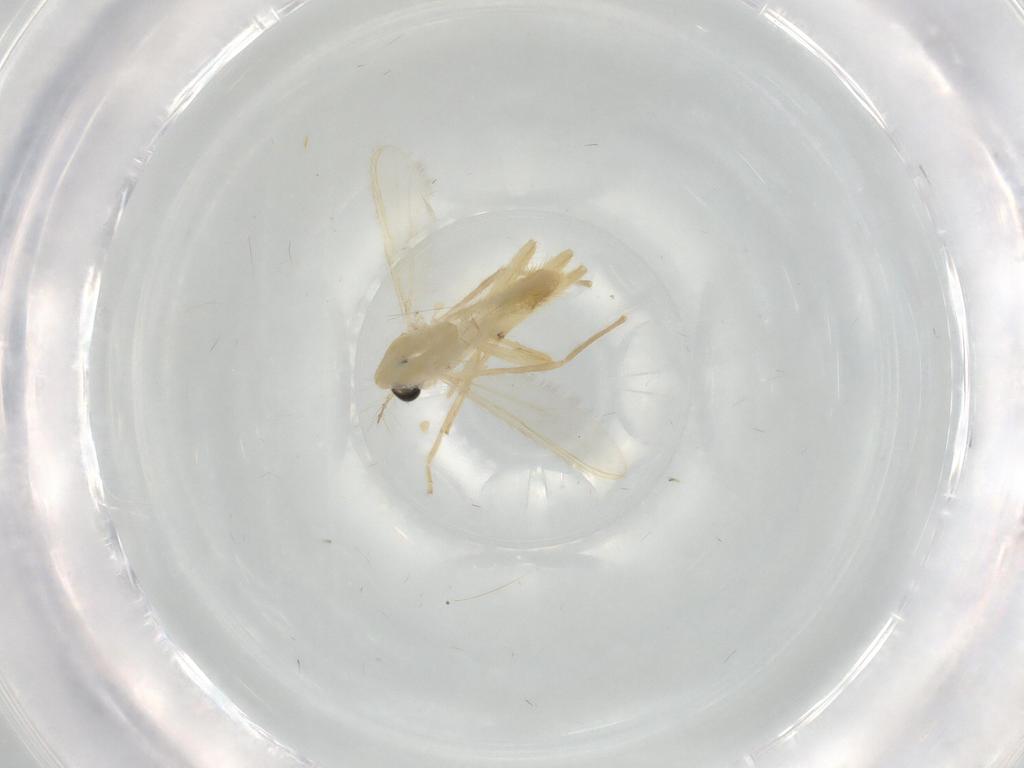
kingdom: Animalia
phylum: Arthropoda
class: Insecta
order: Diptera
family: Chironomidae
